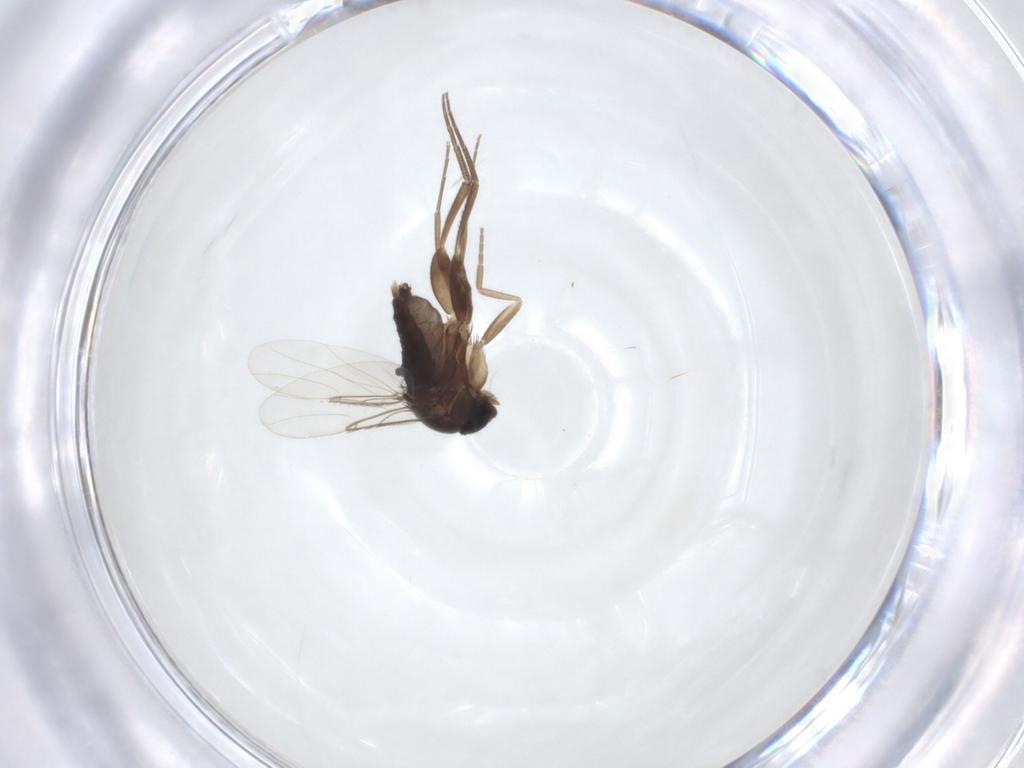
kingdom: Animalia
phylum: Arthropoda
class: Insecta
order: Diptera
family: Phoridae
